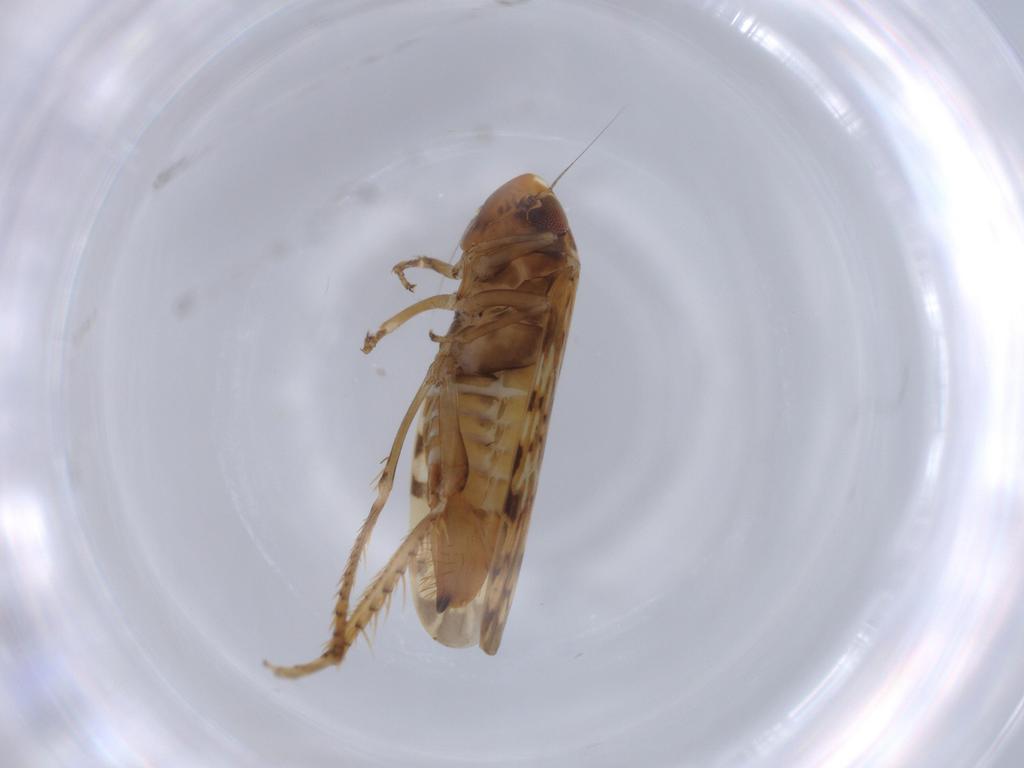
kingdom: Animalia
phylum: Arthropoda
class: Insecta
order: Hemiptera
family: Cicadellidae
